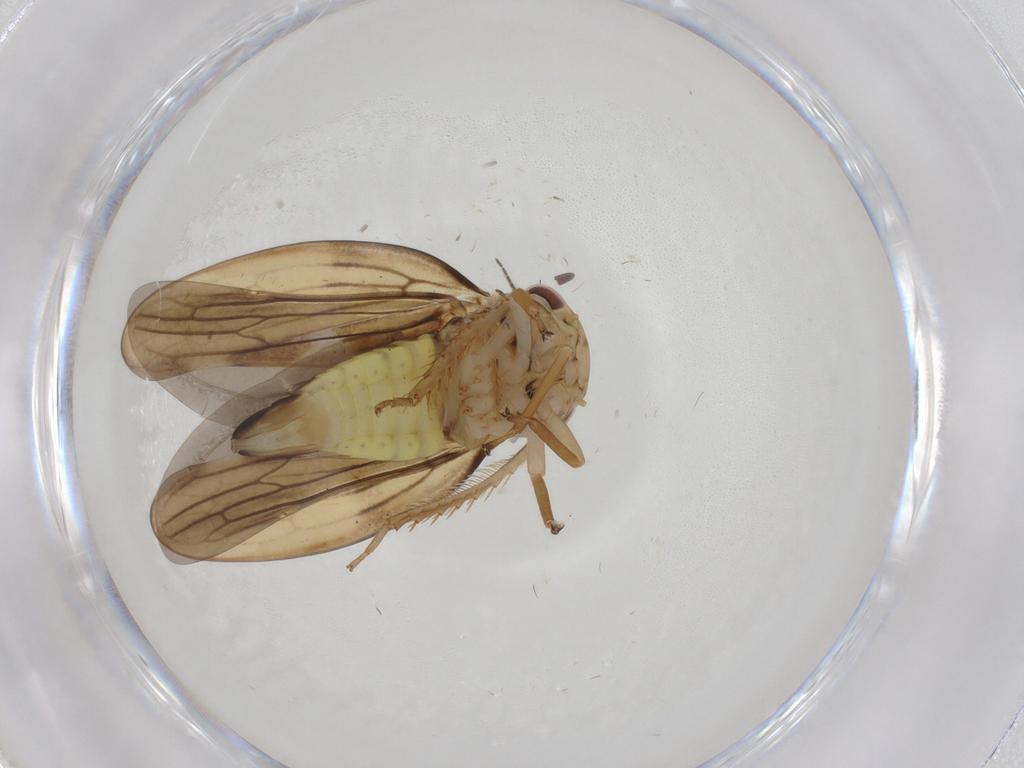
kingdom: Animalia
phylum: Arthropoda
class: Insecta
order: Hemiptera
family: Cicadellidae
